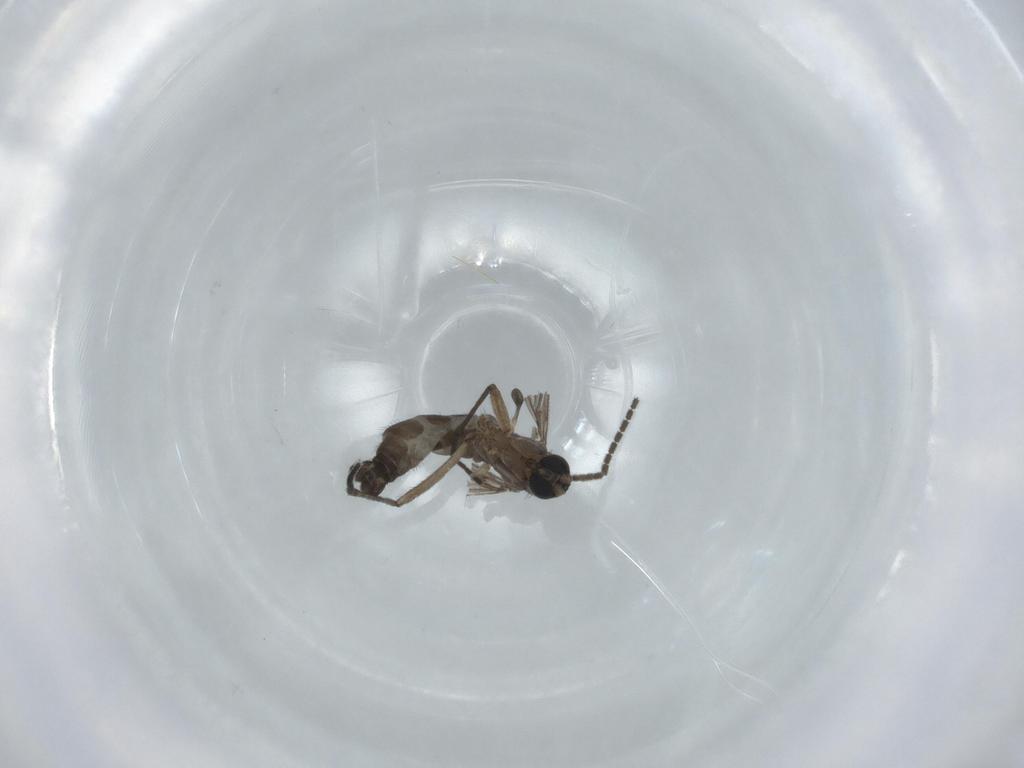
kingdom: Animalia
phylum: Arthropoda
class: Insecta
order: Diptera
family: Sciaridae
